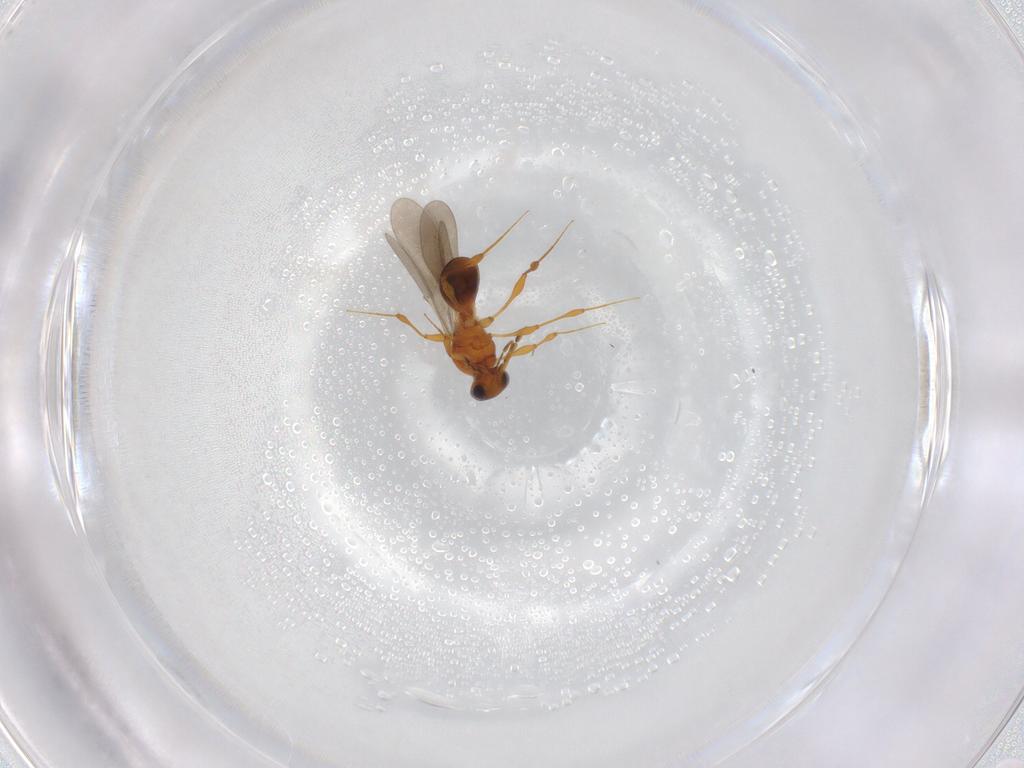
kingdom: Animalia
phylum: Arthropoda
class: Insecta
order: Hymenoptera
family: Platygastridae
